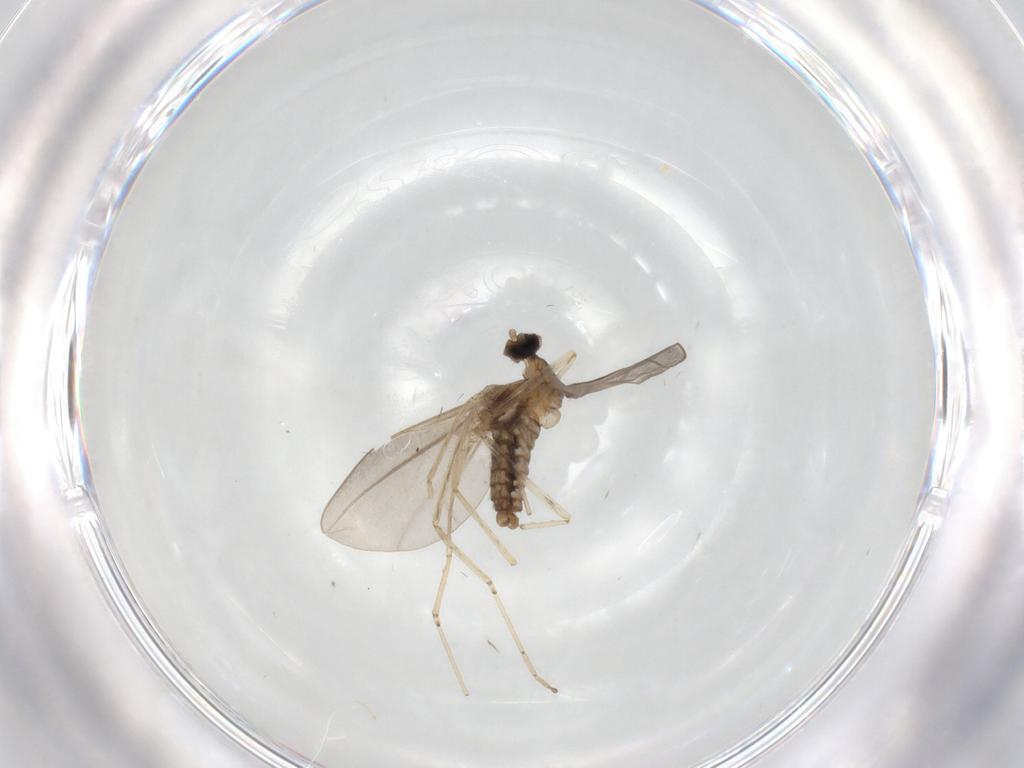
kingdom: Animalia
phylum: Arthropoda
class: Insecta
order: Diptera
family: Cecidomyiidae
